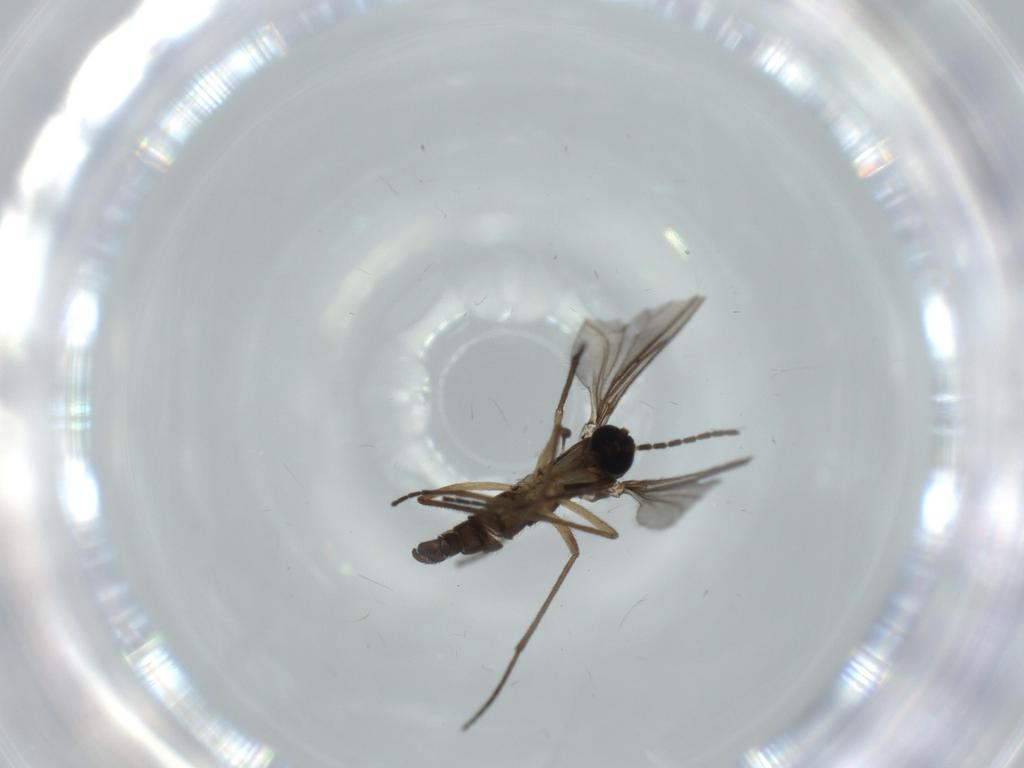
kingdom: Animalia
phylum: Arthropoda
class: Insecta
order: Diptera
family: Sciaridae
